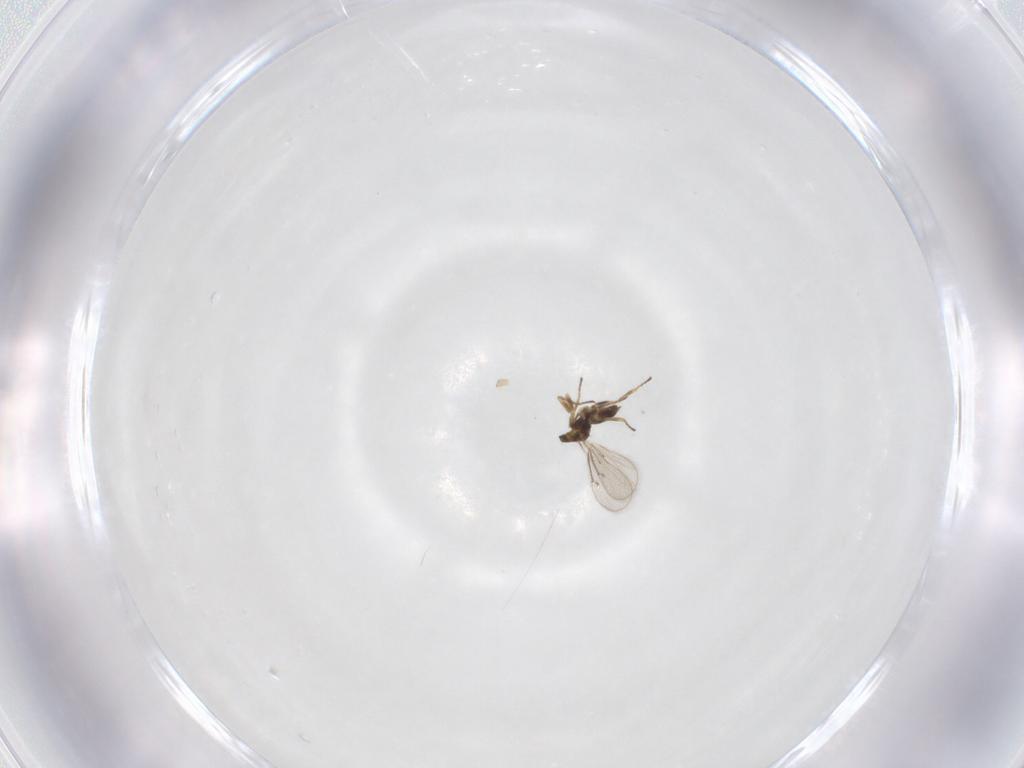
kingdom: Animalia
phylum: Arthropoda
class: Insecta
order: Hymenoptera
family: Eulophidae
